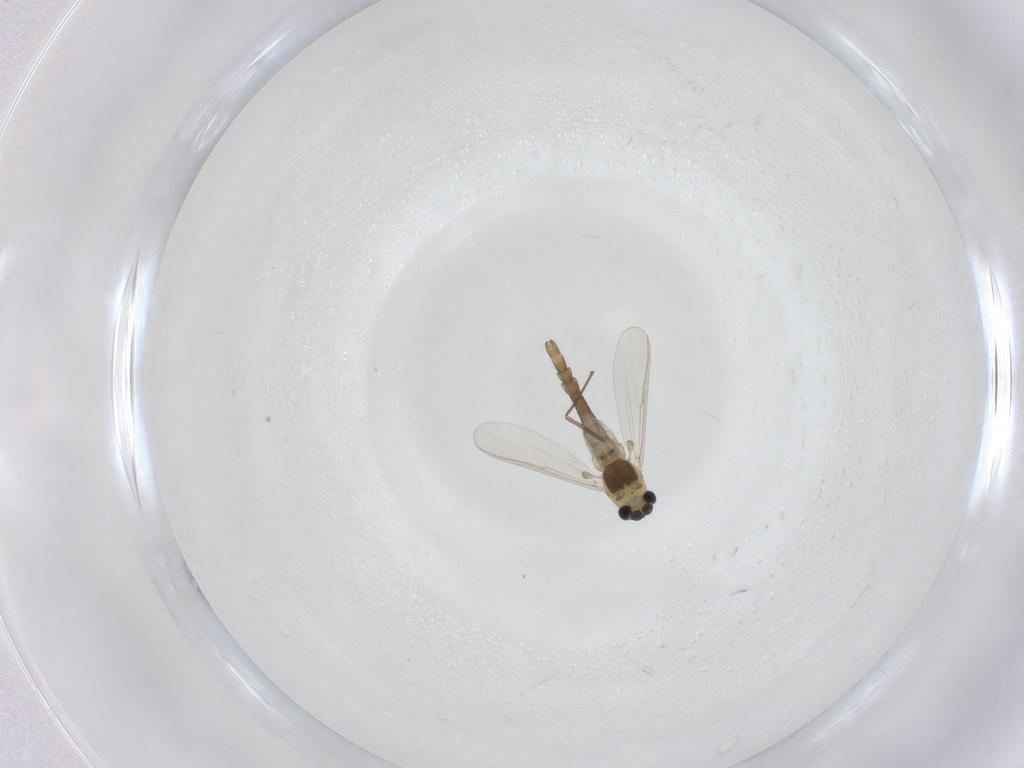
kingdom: Animalia
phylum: Arthropoda
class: Insecta
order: Diptera
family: Chironomidae
